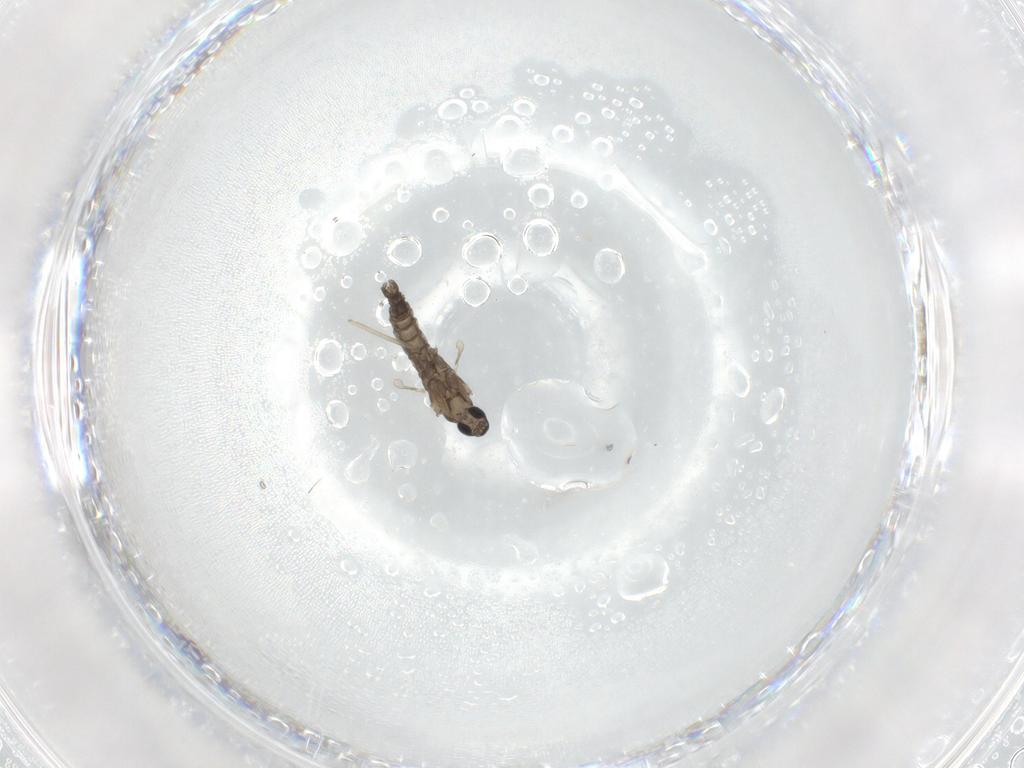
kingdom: Animalia
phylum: Arthropoda
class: Insecta
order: Diptera
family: Cecidomyiidae
